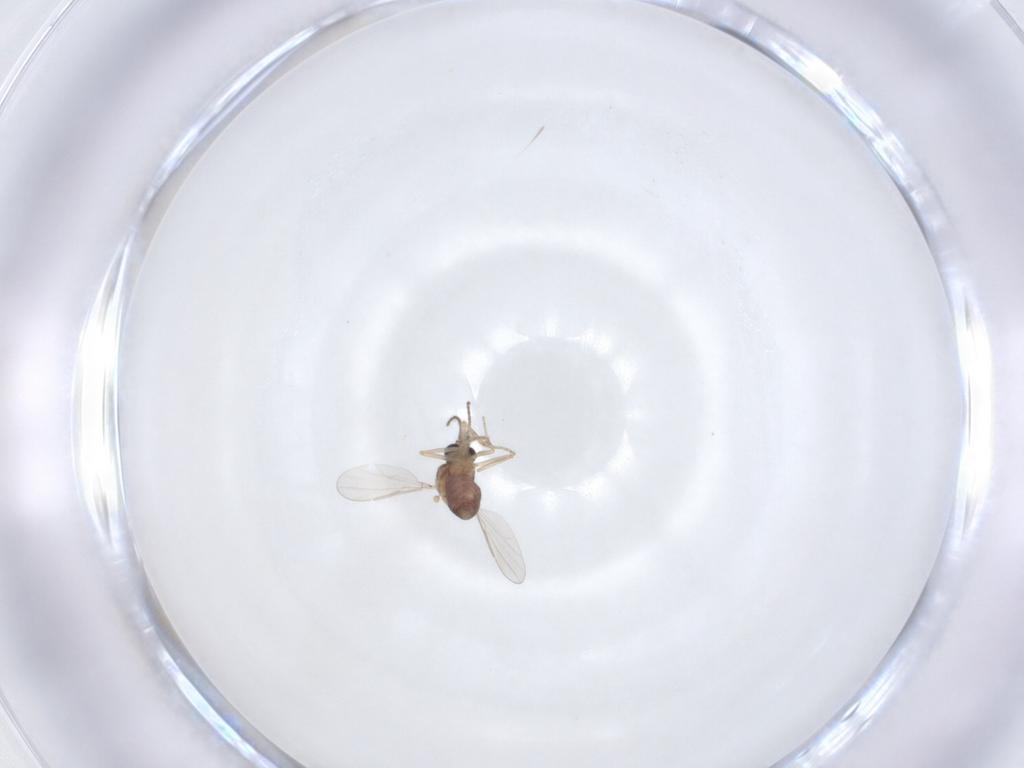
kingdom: Animalia
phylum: Arthropoda
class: Insecta
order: Diptera
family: Ceratopogonidae
